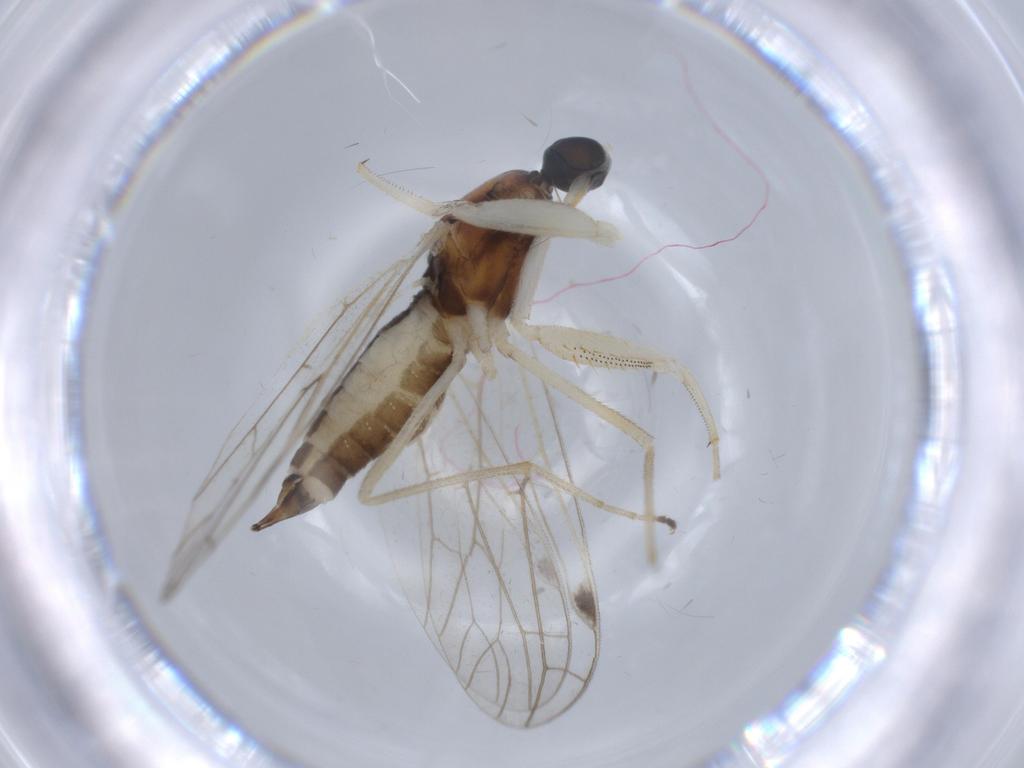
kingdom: Animalia
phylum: Arthropoda
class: Insecta
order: Diptera
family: Empididae
